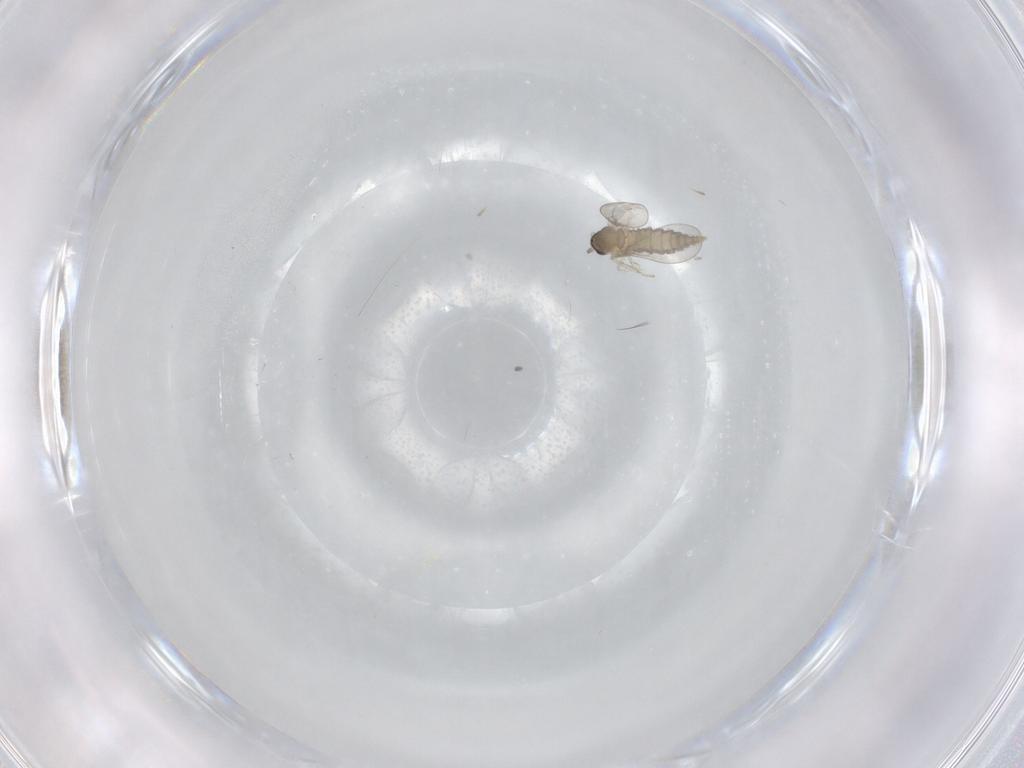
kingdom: Animalia
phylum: Arthropoda
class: Insecta
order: Diptera
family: Cecidomyiidae
